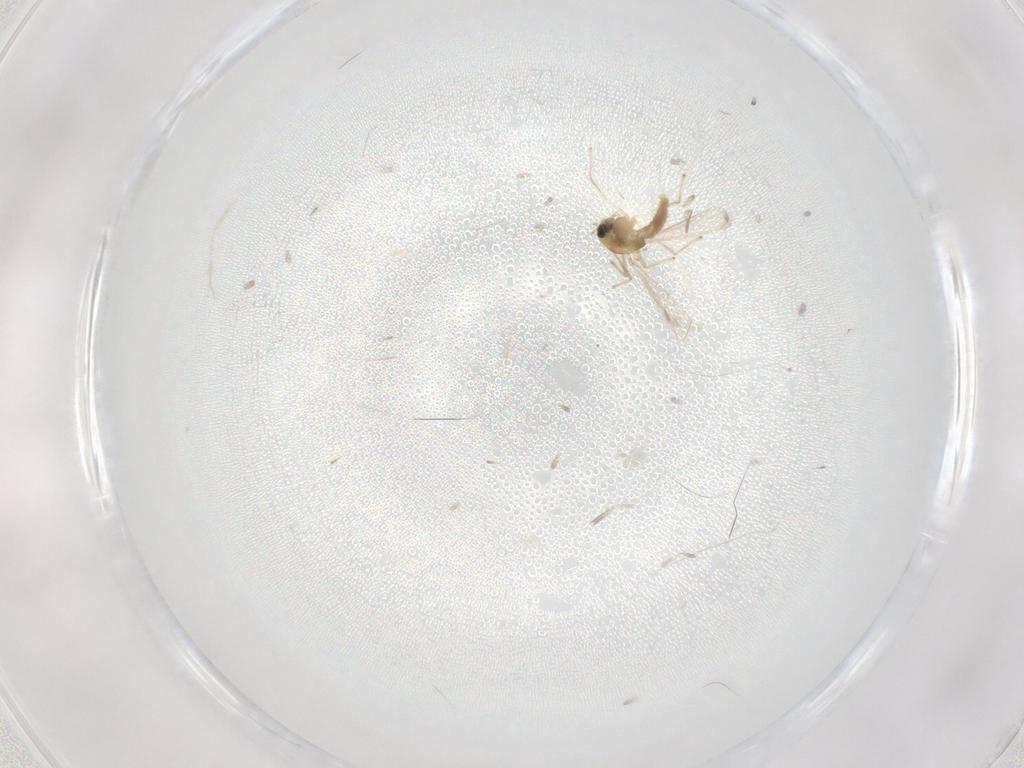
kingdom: Animalia
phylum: Arthropoda
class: Insecta
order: Diptera
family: Chironomidae
